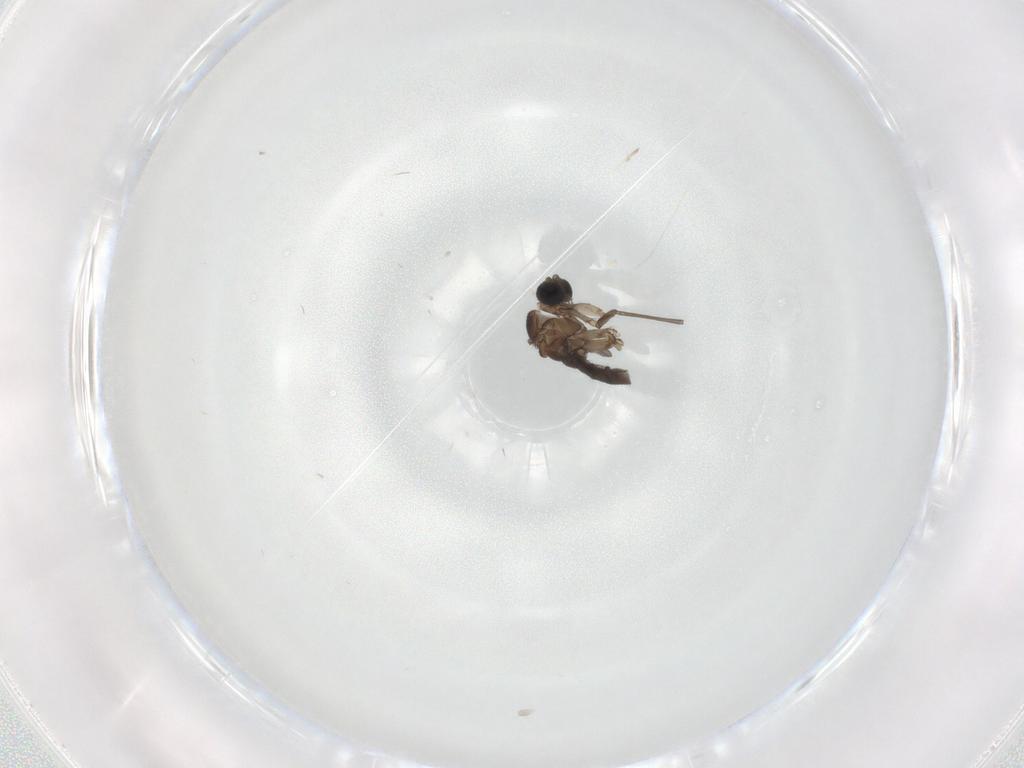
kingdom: Animalia
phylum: Arthropoda
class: Insecta
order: Diptera
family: Sciaridae
